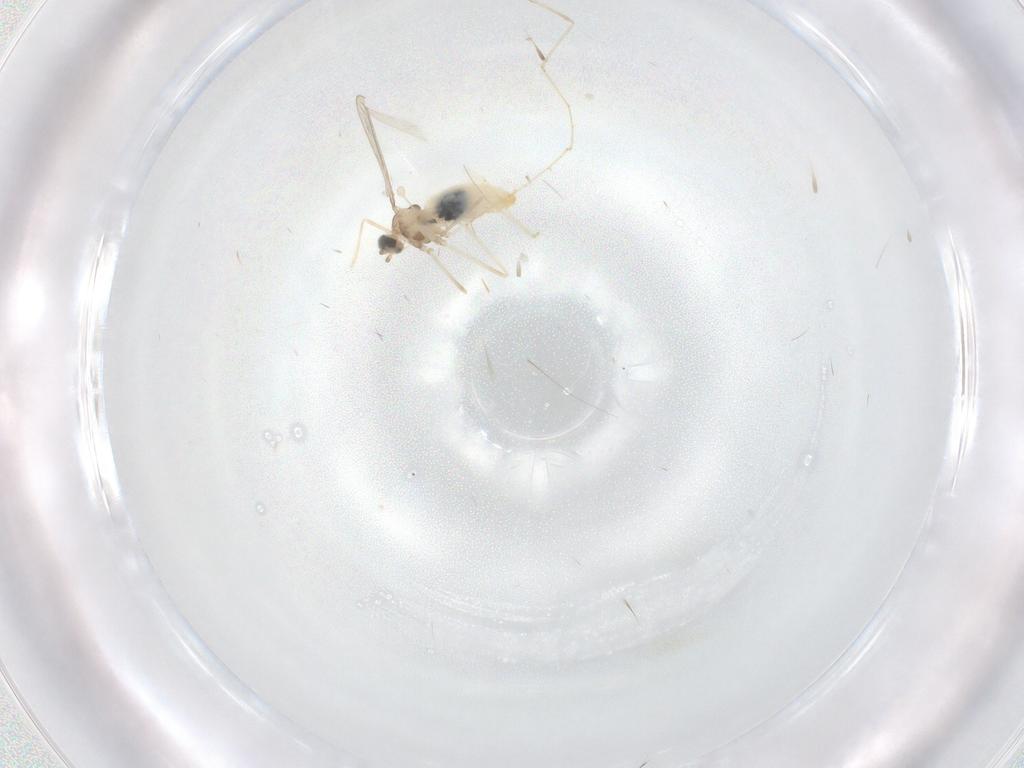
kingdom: Animalia
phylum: Arthropoda
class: Insecta
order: Diptera
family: Cecidomyiidae
